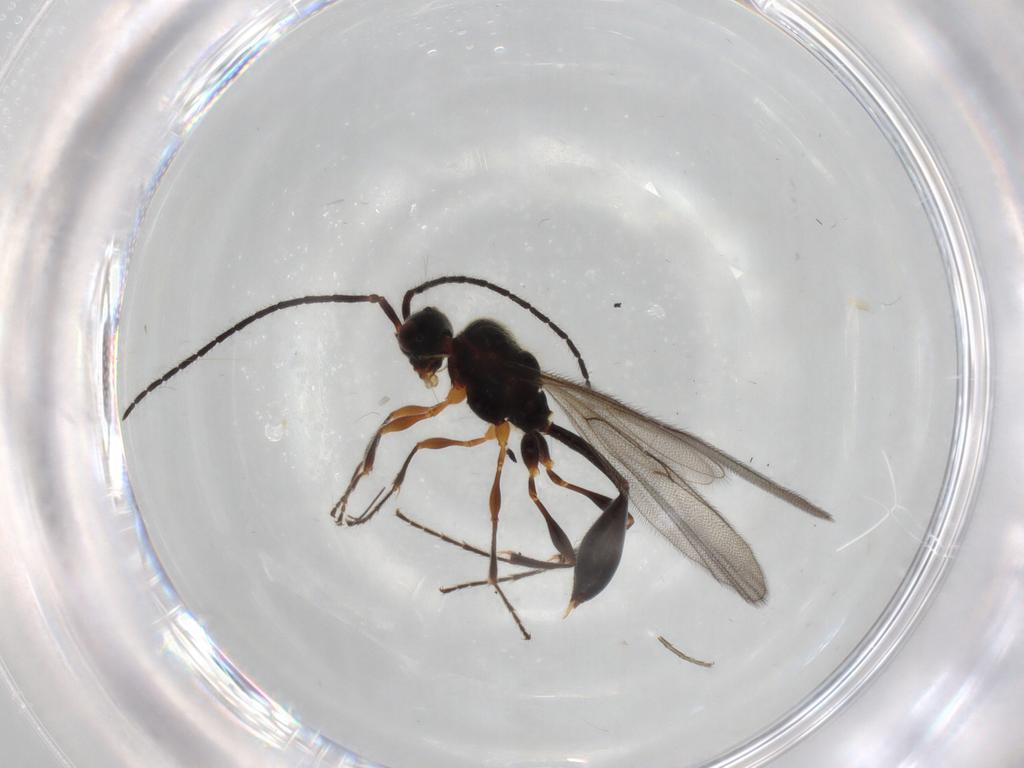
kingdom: Animalia
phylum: Arthropoda
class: Insecta
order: Hymenoptera
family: Diapriidae
